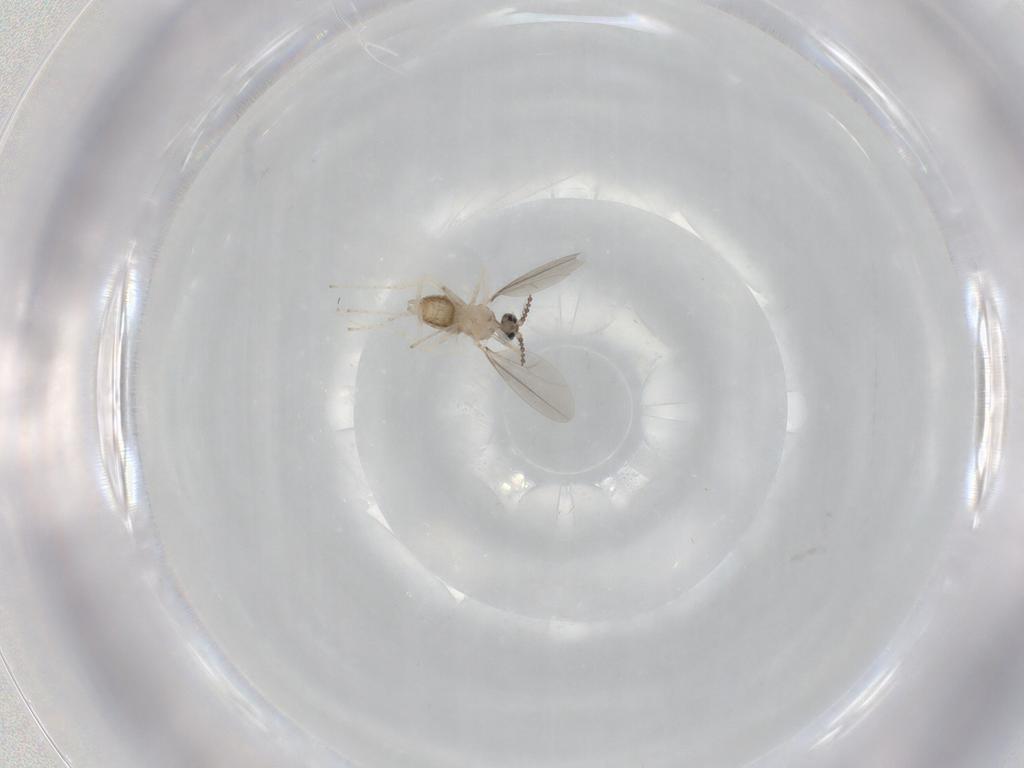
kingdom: Animalia
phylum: Arthropoda
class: Insecta
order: Diptera
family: Cecidomyiidae
